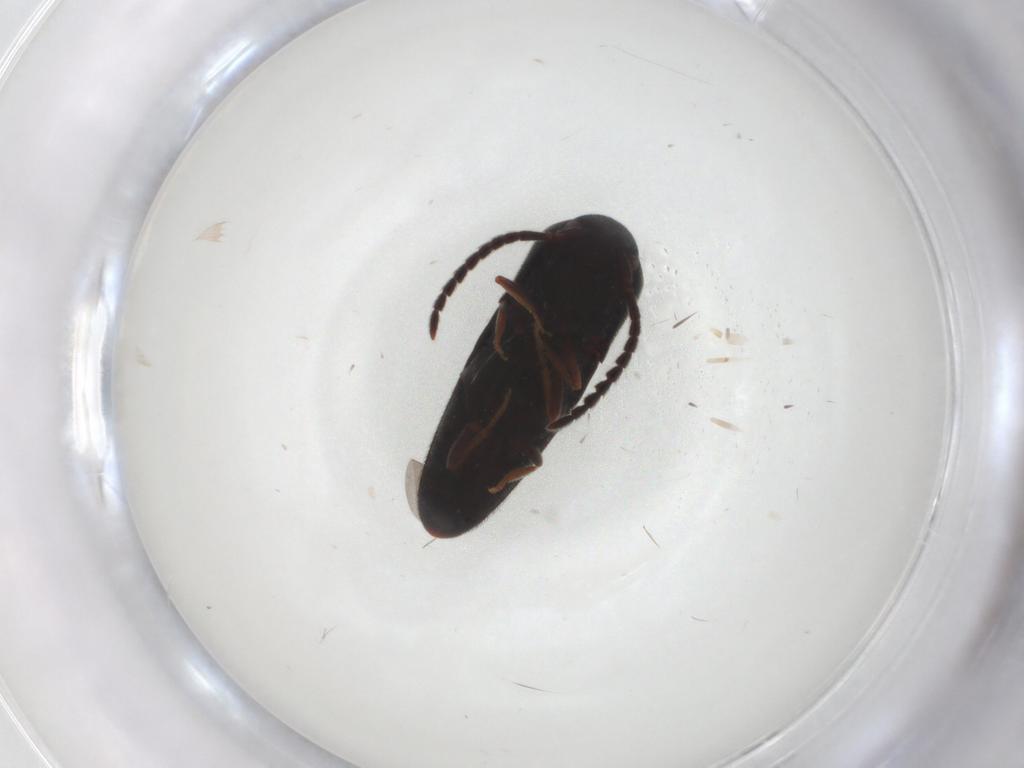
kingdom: Animalia
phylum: Arthropoda
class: Insecta
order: Coleoptera
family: Eucnemidae
